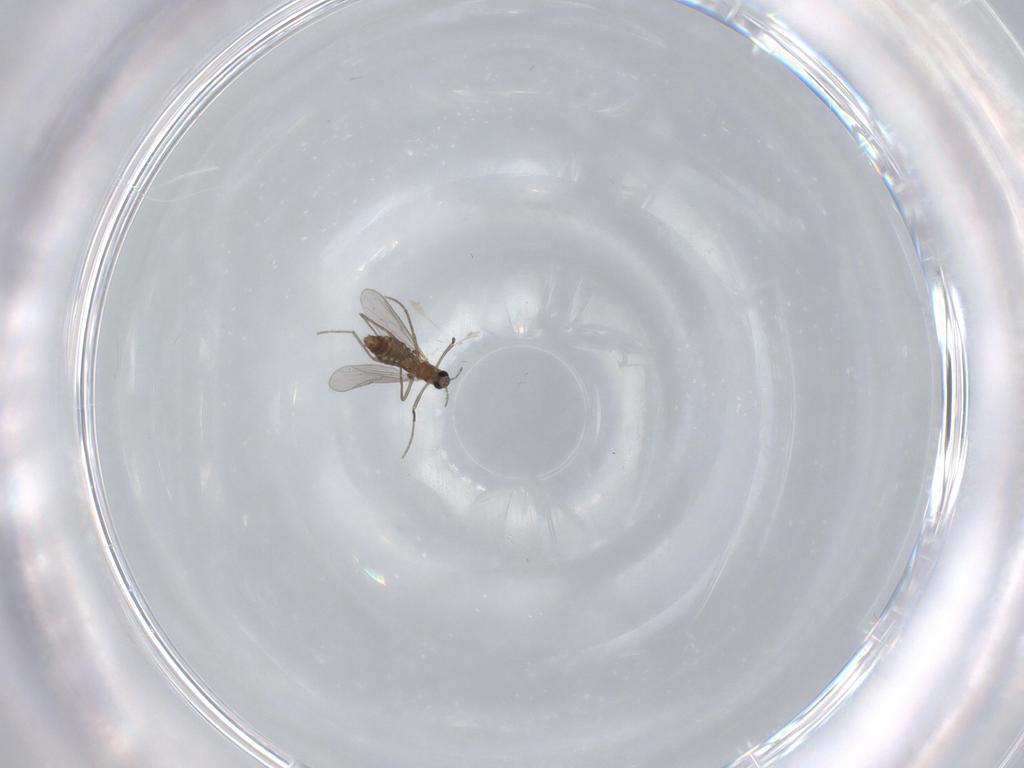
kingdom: Animalia
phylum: Arthropoda
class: Insecta
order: Diptera
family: Chironomidae
